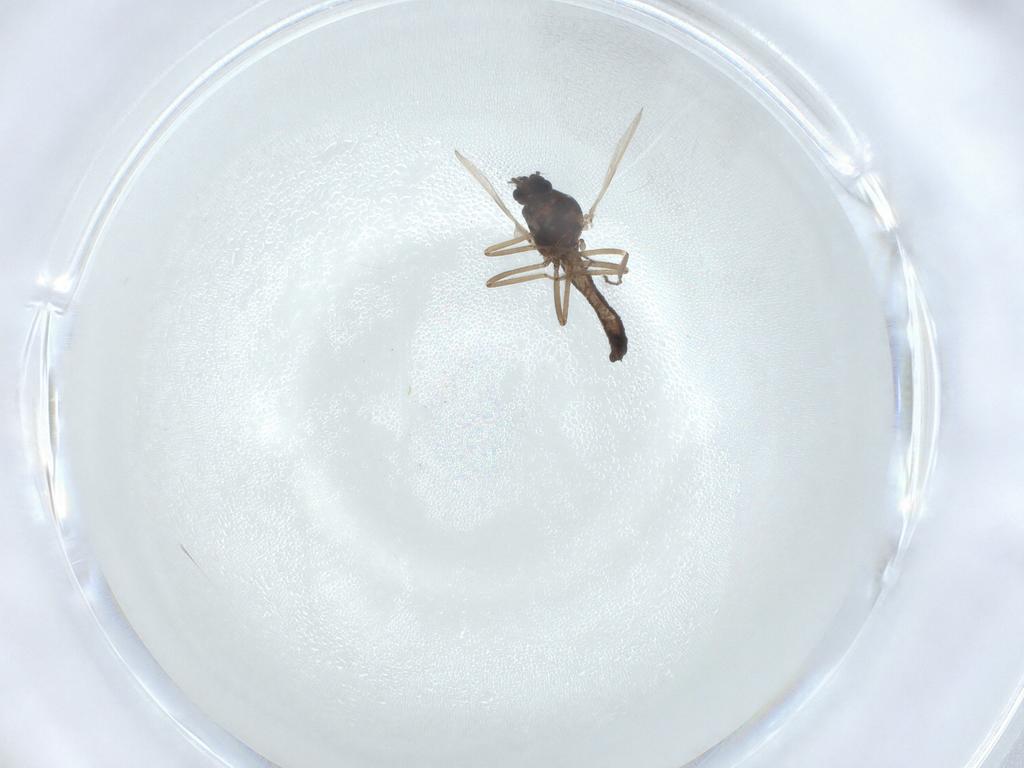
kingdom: Animalia
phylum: Arthropoda
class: Insecta
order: Diptera
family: Ceratopogonidae
